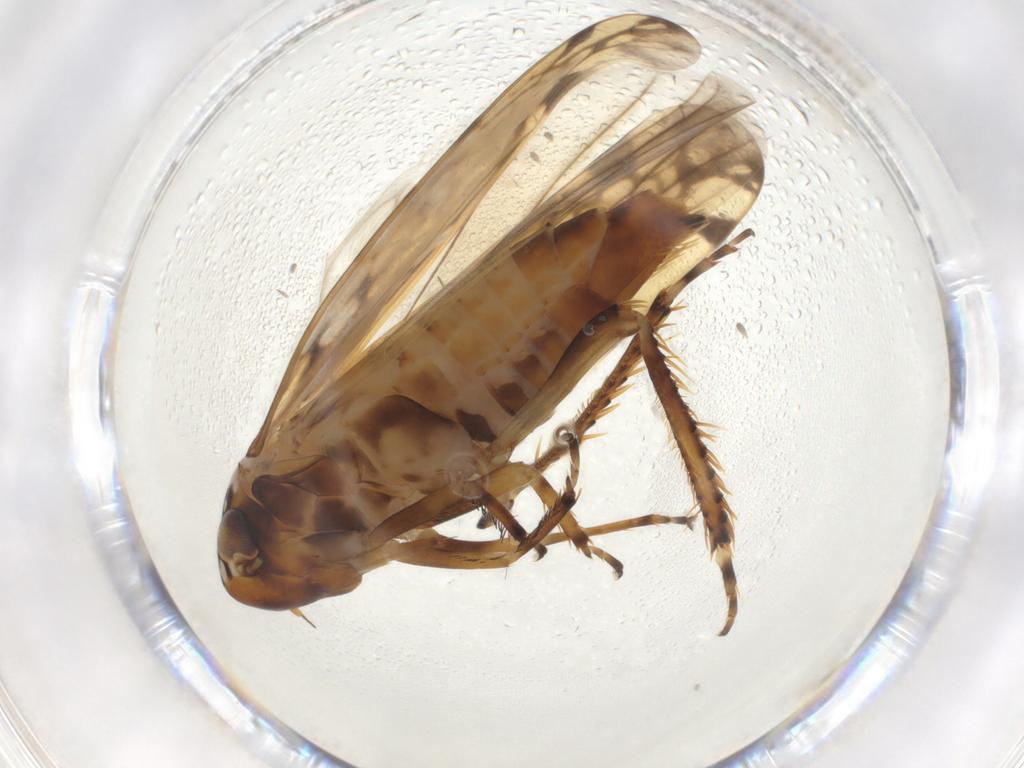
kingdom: Animalia
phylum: Arthropoda
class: Insecta
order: Hemiptera
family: Cicadellidae
